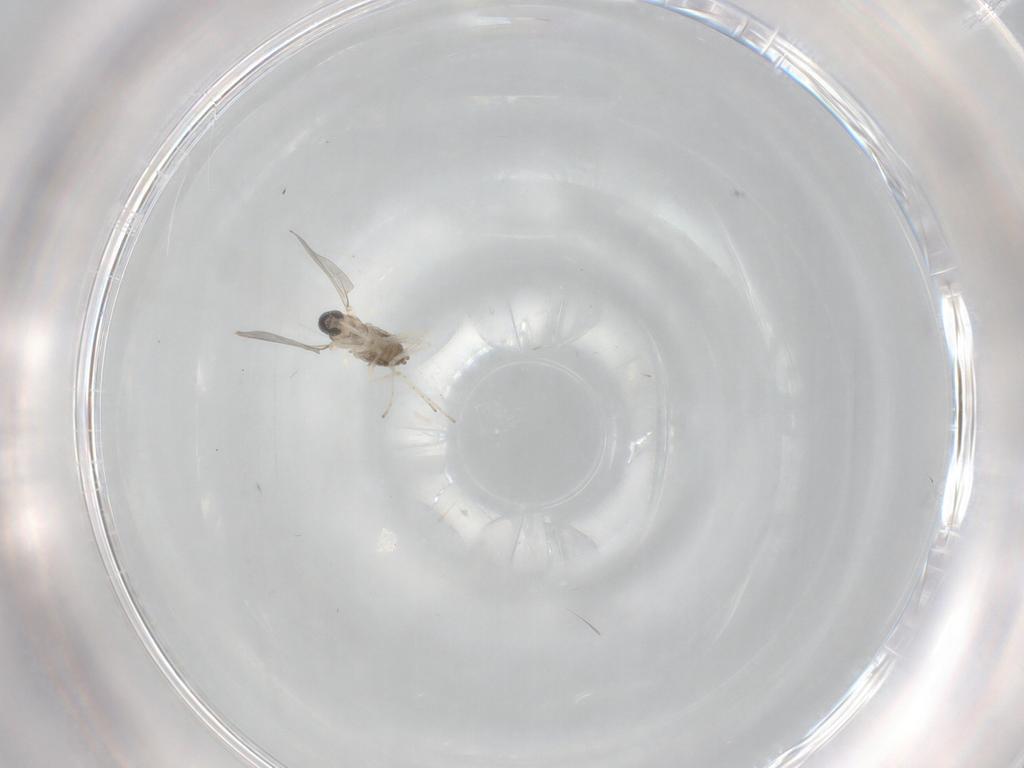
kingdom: Animalia
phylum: Arthropoda
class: Insecta
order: Diptera
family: Cecidomyiidae
